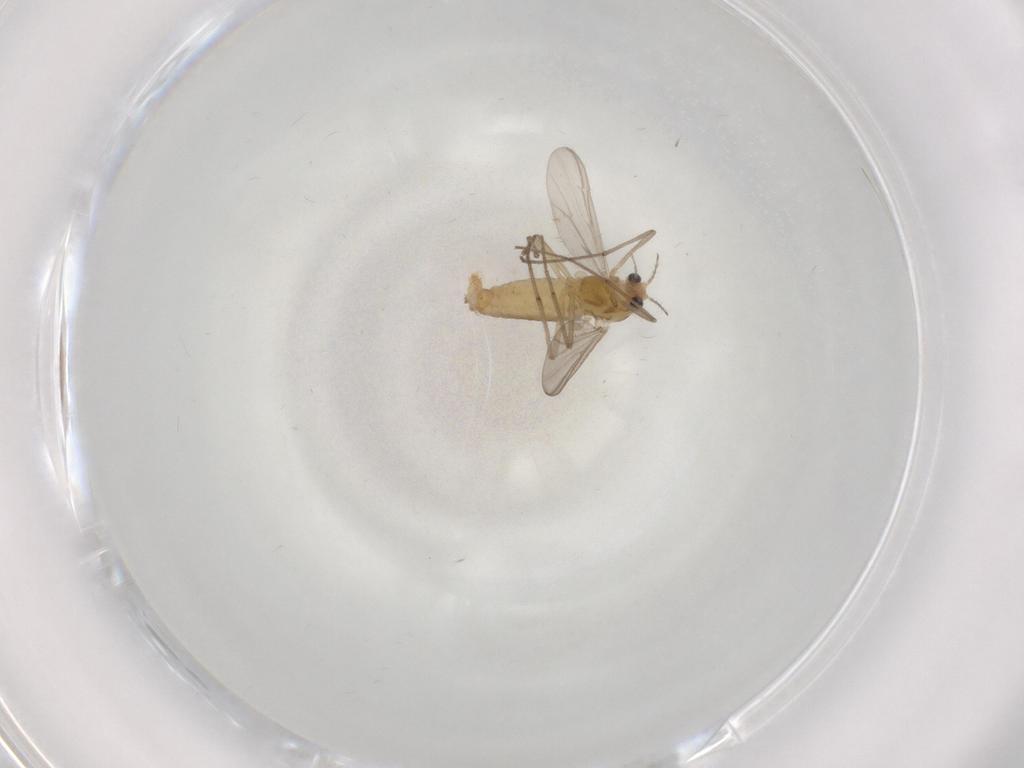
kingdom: Animalia
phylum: Arthropoda
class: Insecta
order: Diptera
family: Chironomidae
